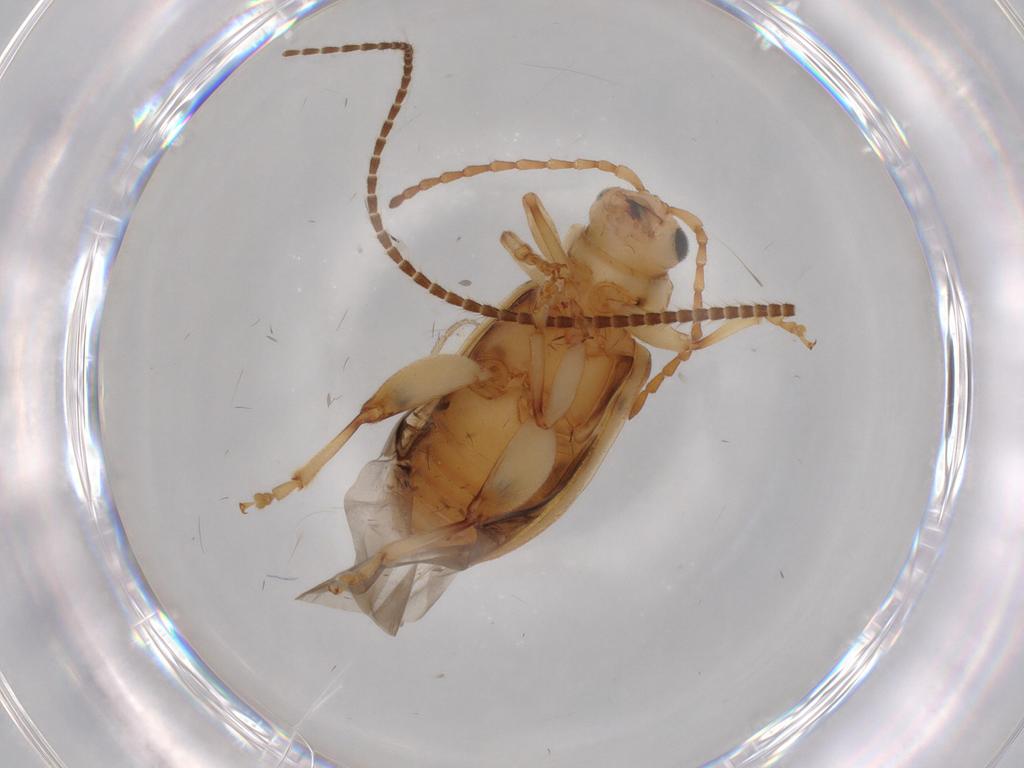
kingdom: Animalia
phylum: Arthropoda
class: Insecta
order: Coleoptera
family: Chrysomelidae
